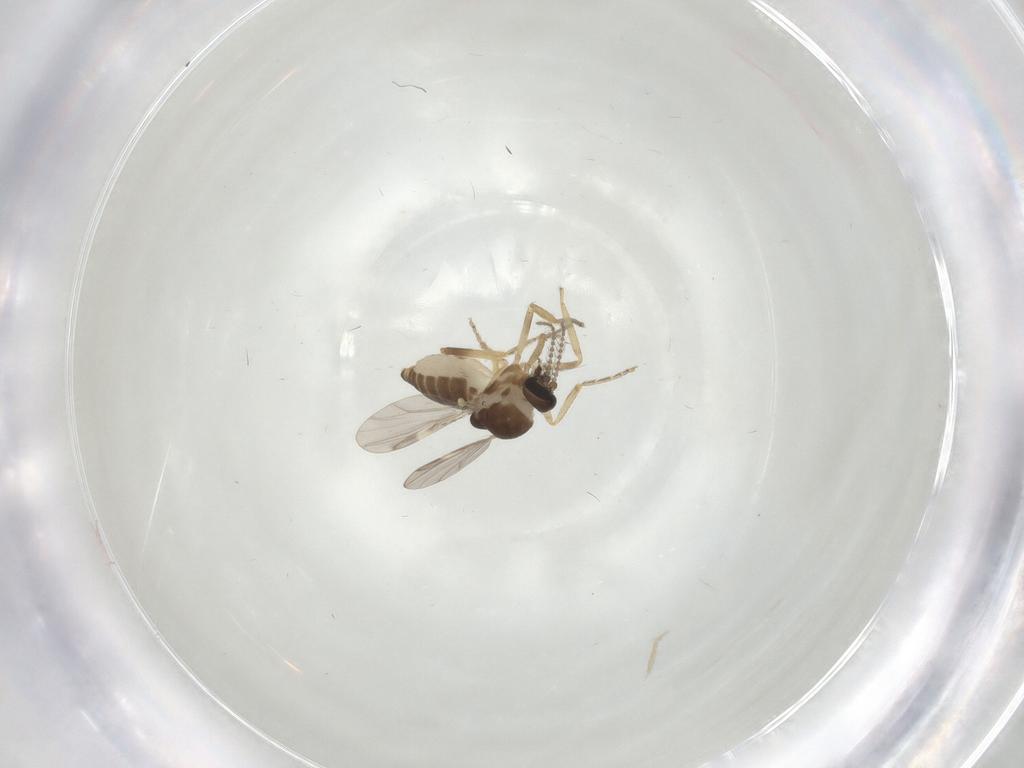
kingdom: Animalia
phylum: Arthropoda
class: Insecta
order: Diptera
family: Ceratopogonidae
